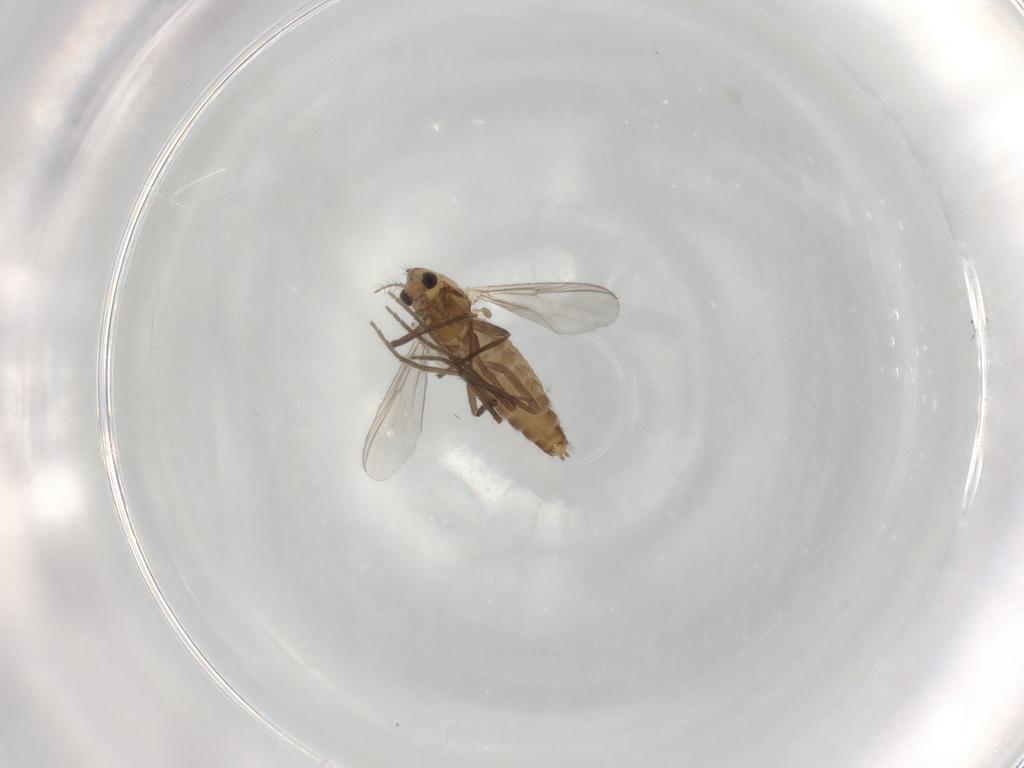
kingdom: Animalia
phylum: Arthropoda
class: Insecta
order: Diptera
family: Chironomidae
